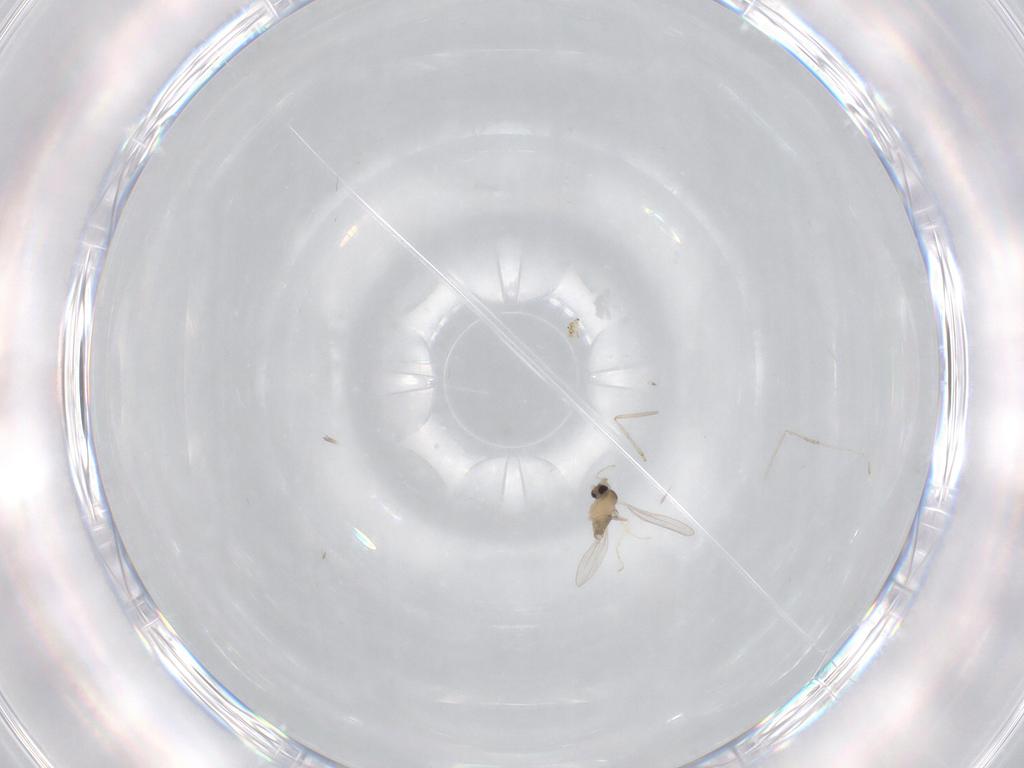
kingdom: Animalia
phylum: Arthropoda
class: Insecta
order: Diptera
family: Cecidomyiidae
